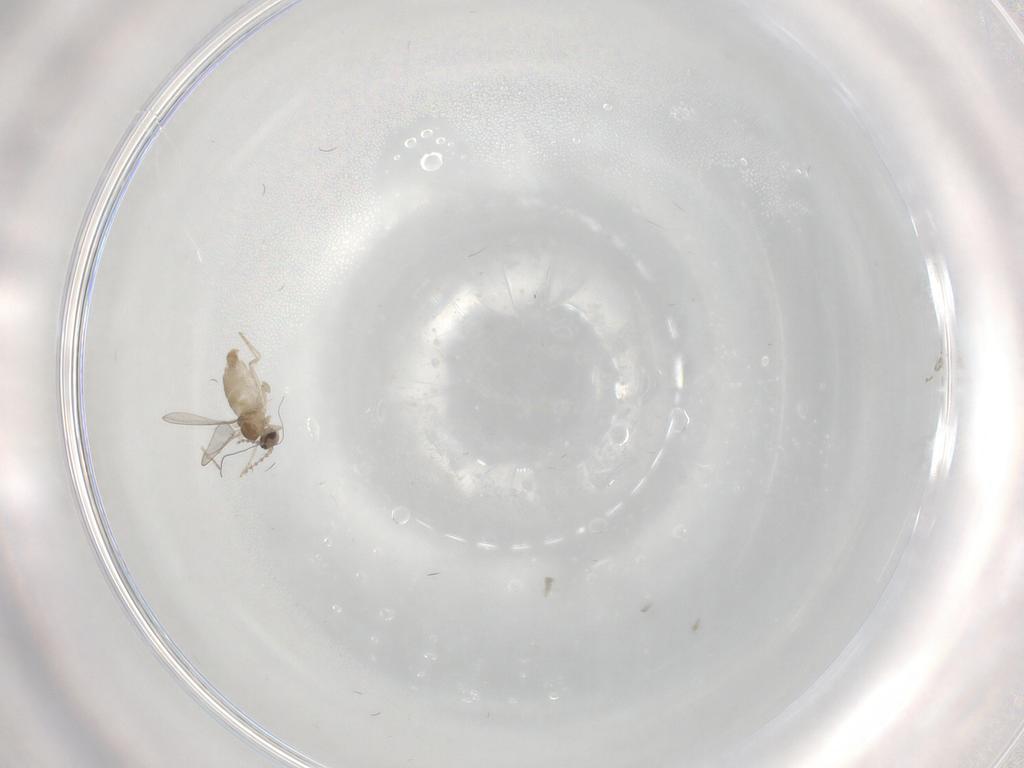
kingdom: Animalia
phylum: Arthropoda
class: Insecta
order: Diptera
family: Cecidomyiidae
